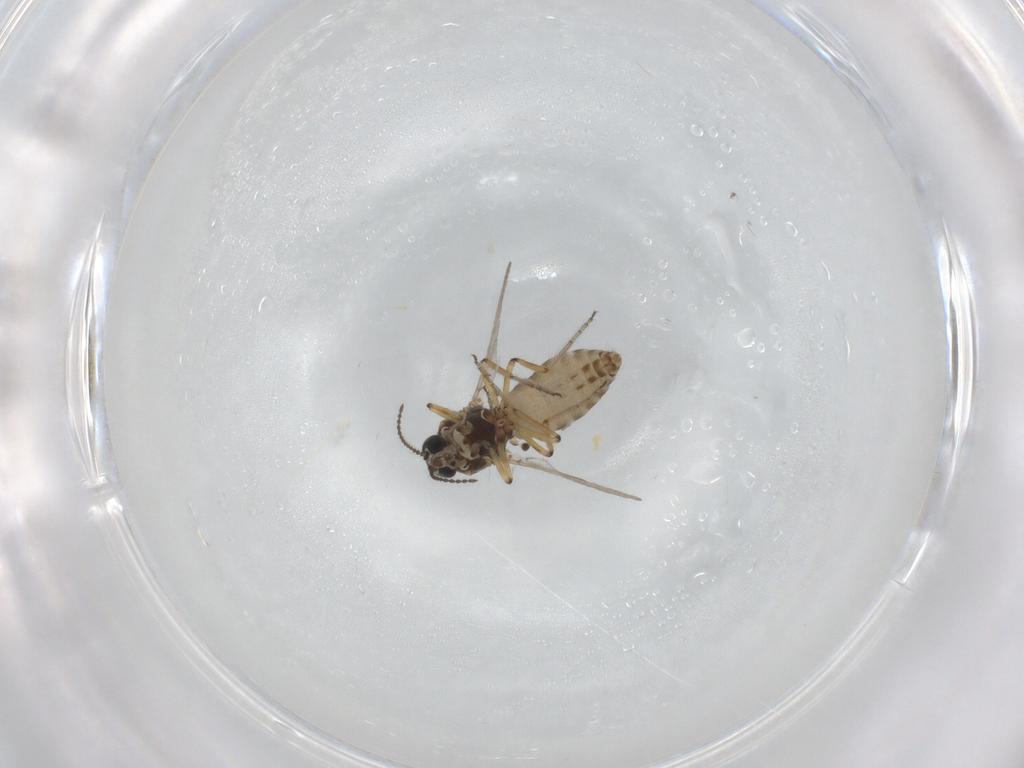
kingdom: Animalia
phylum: Arthropoda
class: Insecta
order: Diptera
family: Ceratopogonidae
